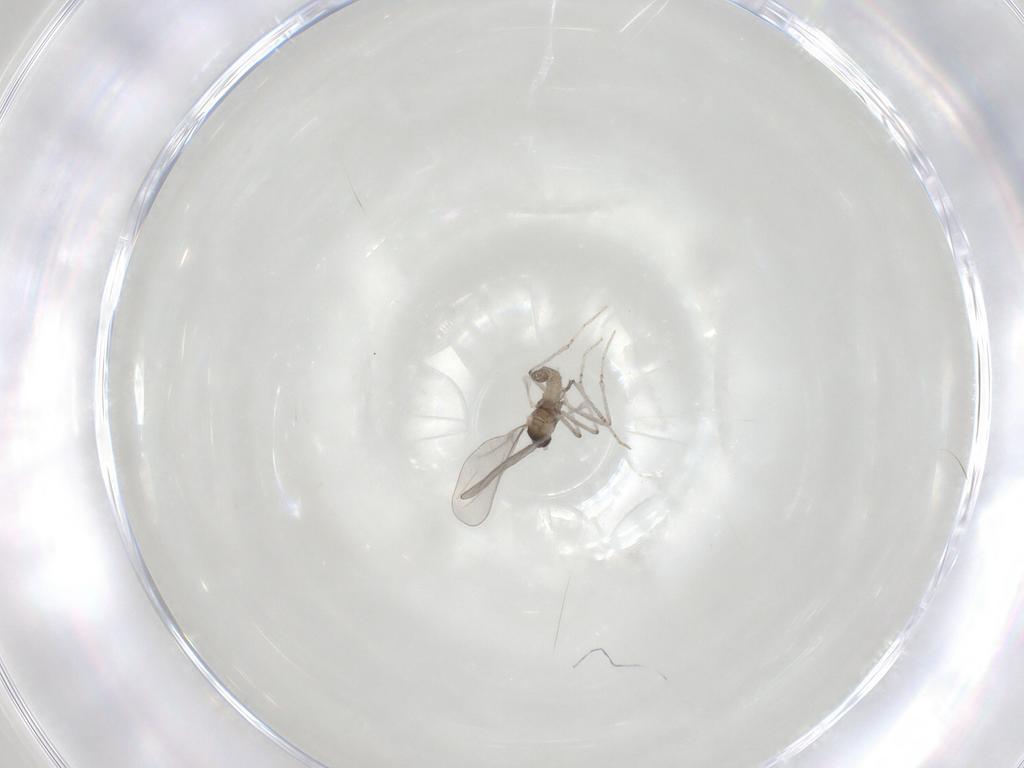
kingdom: Animalia
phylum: Arthropoda
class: Insecta
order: Diptera
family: Cecidomyiidae
